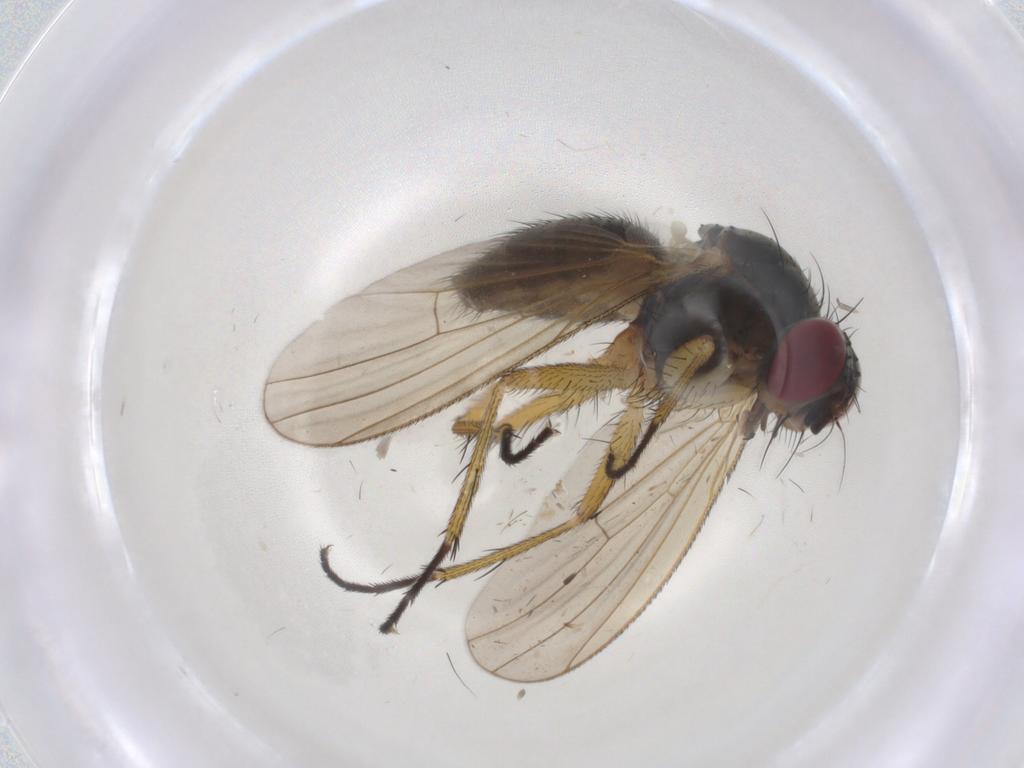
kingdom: Animalia
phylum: Arthropoda
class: Insecta
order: Diptera
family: Muscidae
